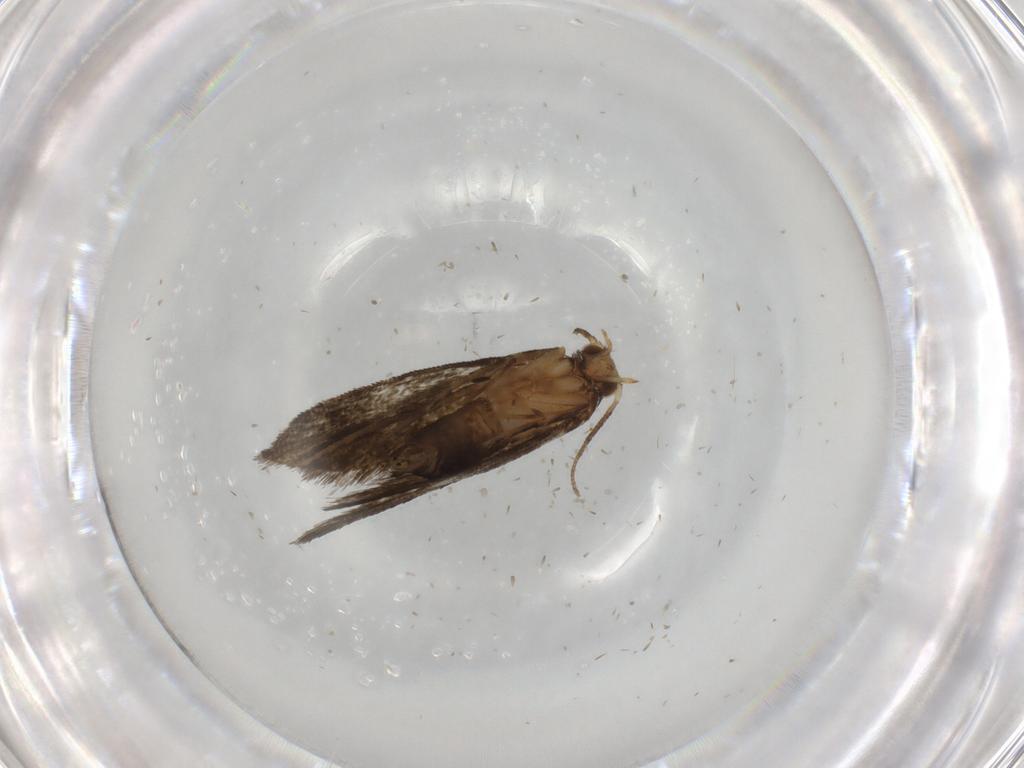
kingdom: Animalia
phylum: Arthropoda
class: Insecta
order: Lepidoptera
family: Crambidae
